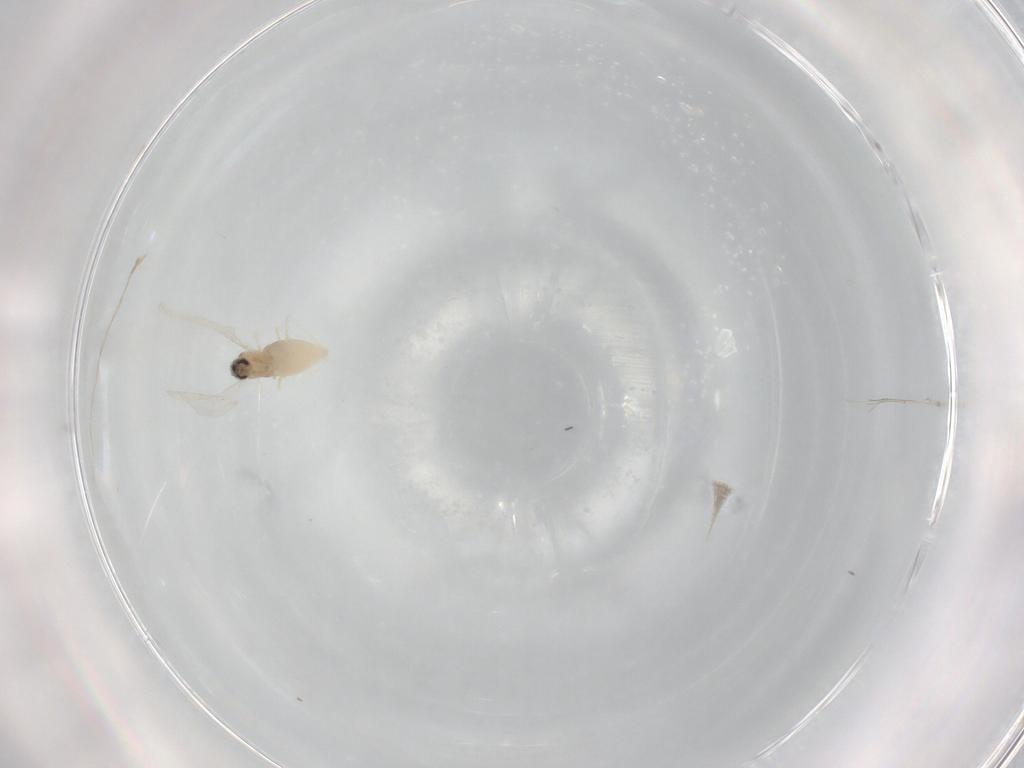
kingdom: Animalia
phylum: Arthropoda
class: Insecta
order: Diptera
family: Cecidomyiidae
